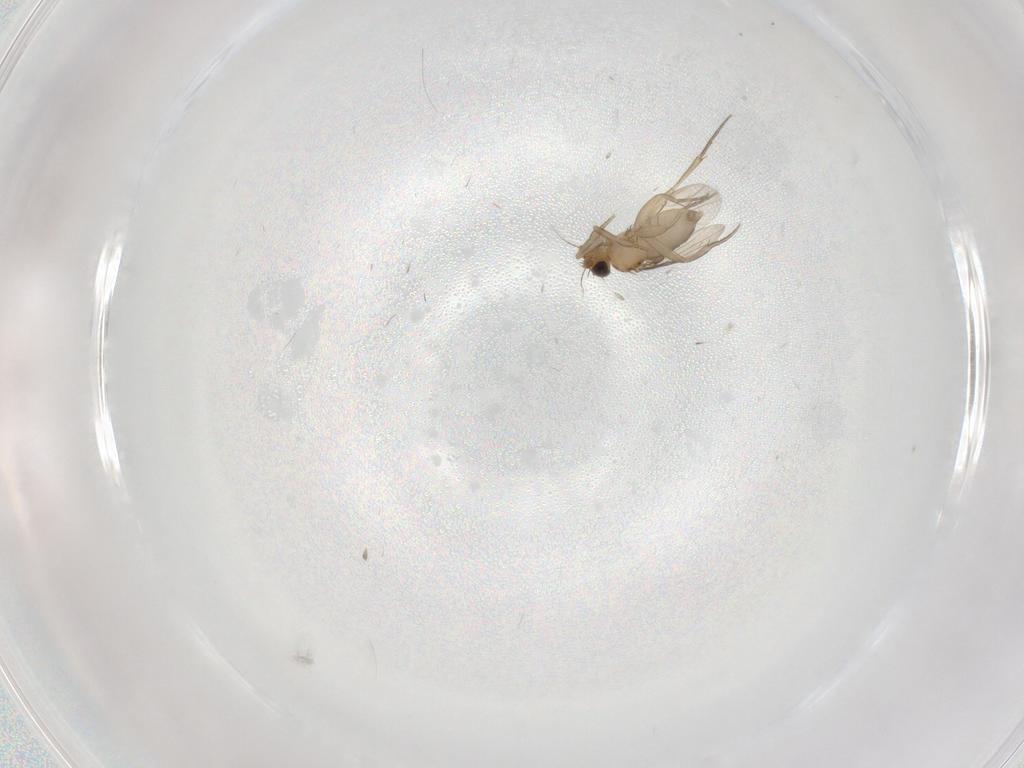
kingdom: Animalia
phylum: Arthropoda
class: Insecta
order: Diptera
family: Phoridae
